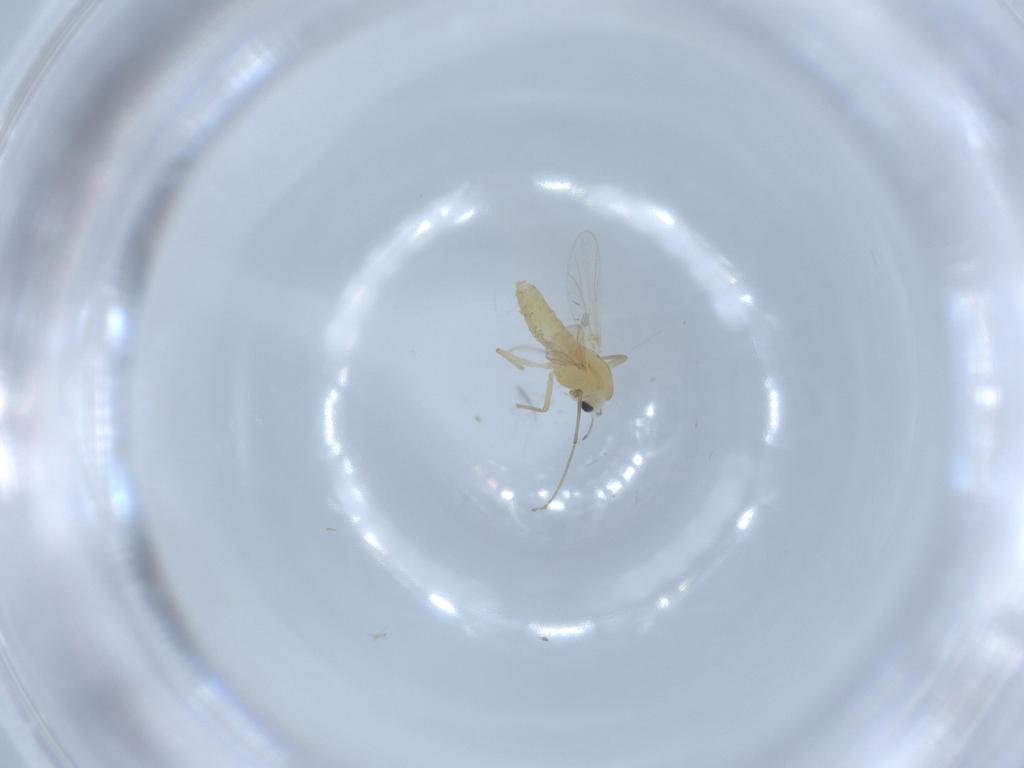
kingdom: Animalia
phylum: Arthropoda
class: Insecta
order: Diptera
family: Chironomidae
